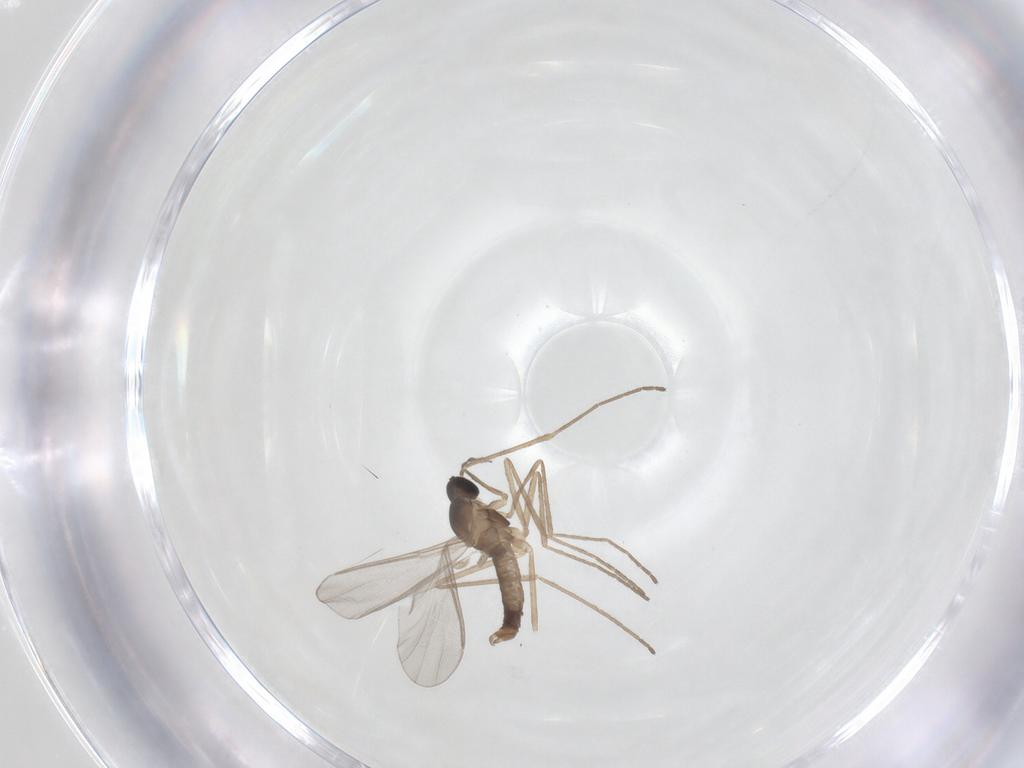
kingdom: Animalia
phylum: Arthropoda
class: Insecta
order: Diptera
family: Cecidomyiidae
